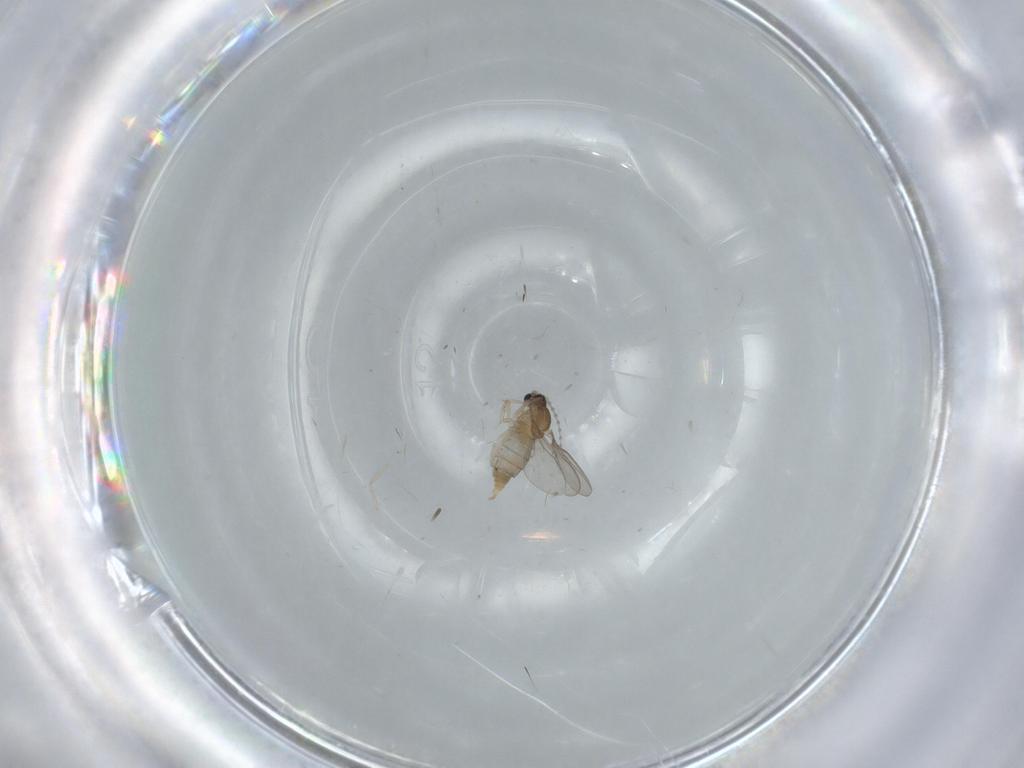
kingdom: Animalia
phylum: Arthropoda
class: Insecta
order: Diptera
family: Cecidomyiidae
